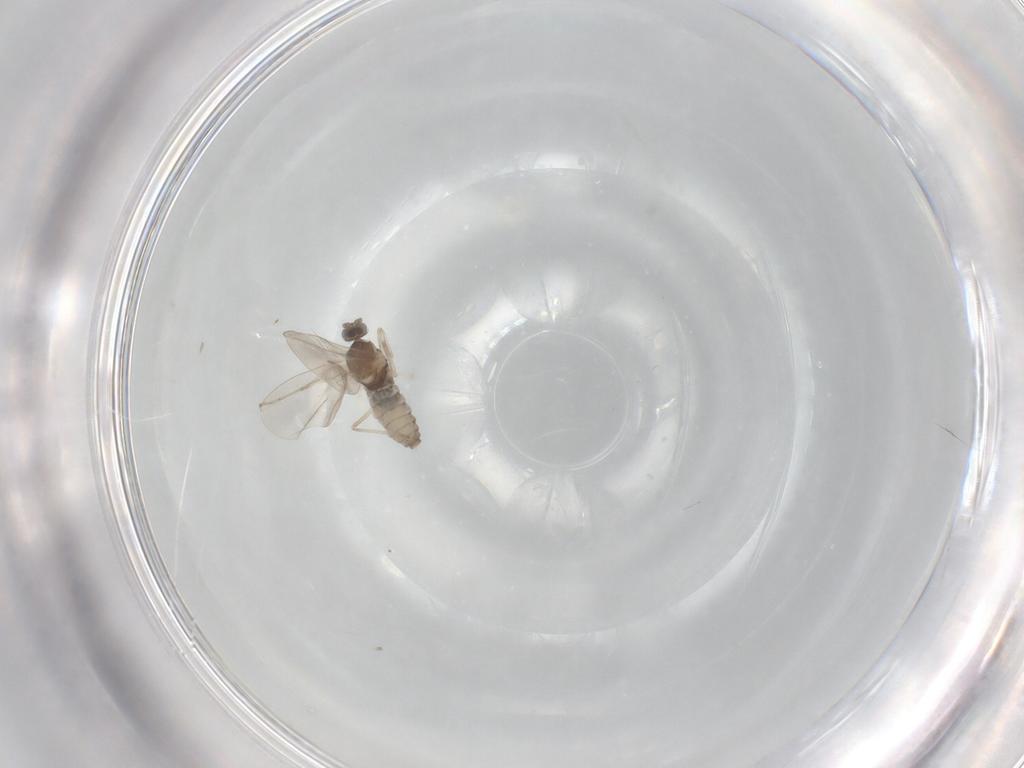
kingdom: Animalia
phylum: Arthropoda
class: Insecta
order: Diptera
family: Cecidomyiidae
